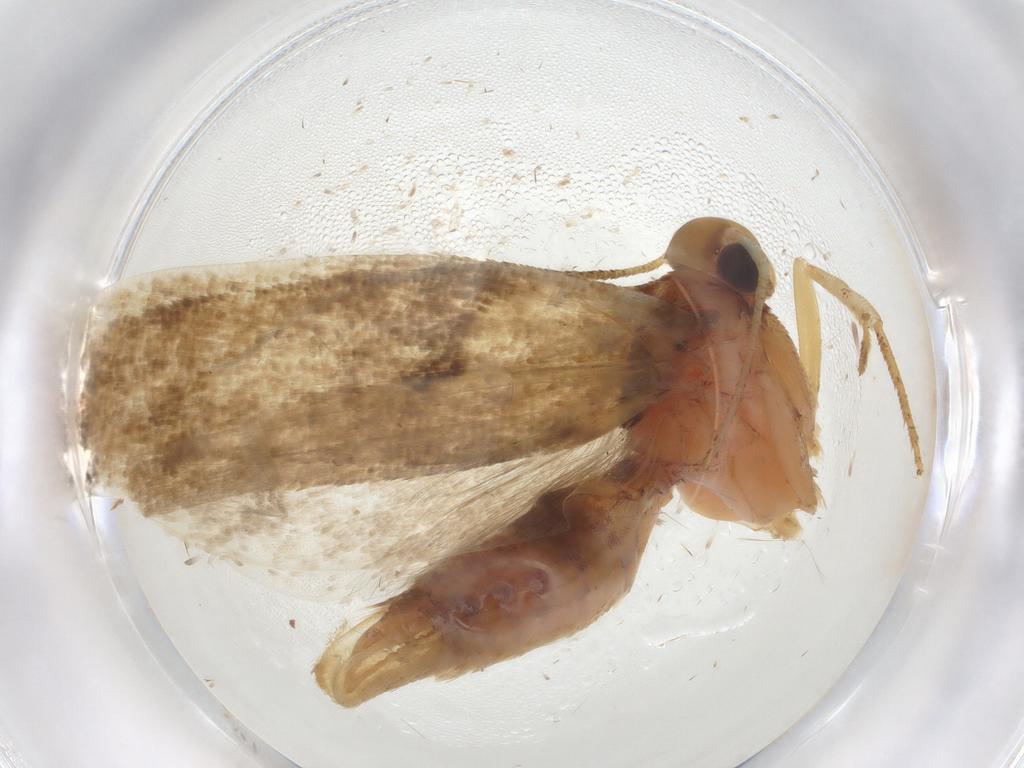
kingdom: Animalia
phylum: Arthropoda
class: Insecta
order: Lepidoptera
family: Gelechiidae
